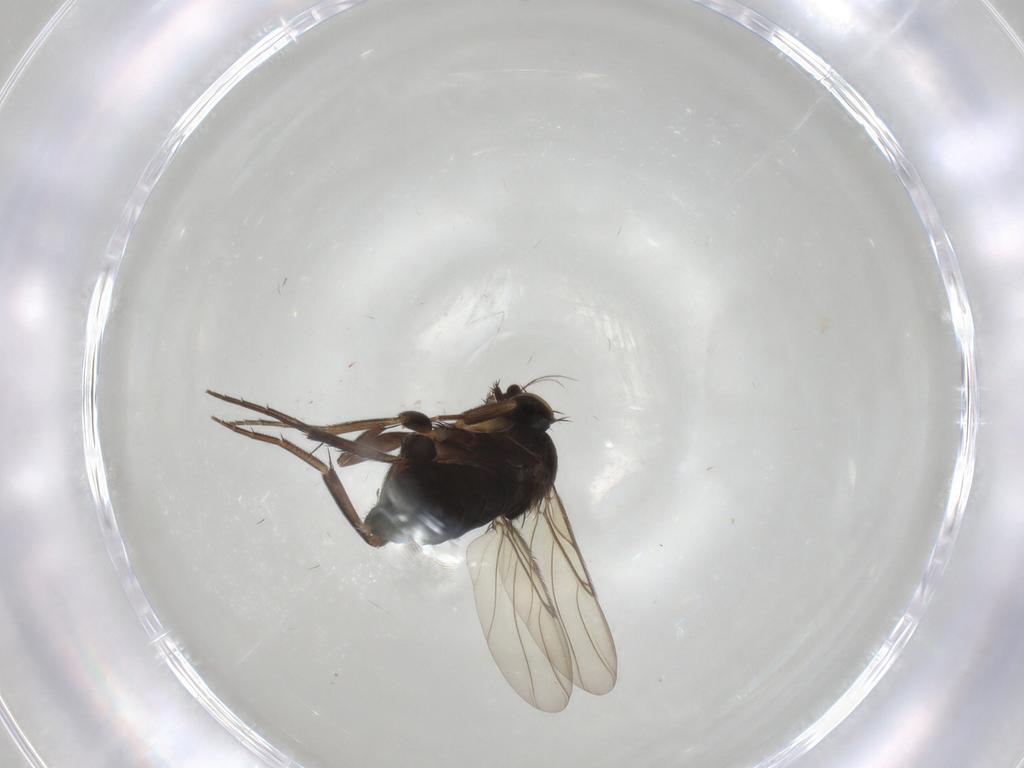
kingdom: Animalia
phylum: Arthropoda
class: Insecta
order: Diptera
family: Phoridae
